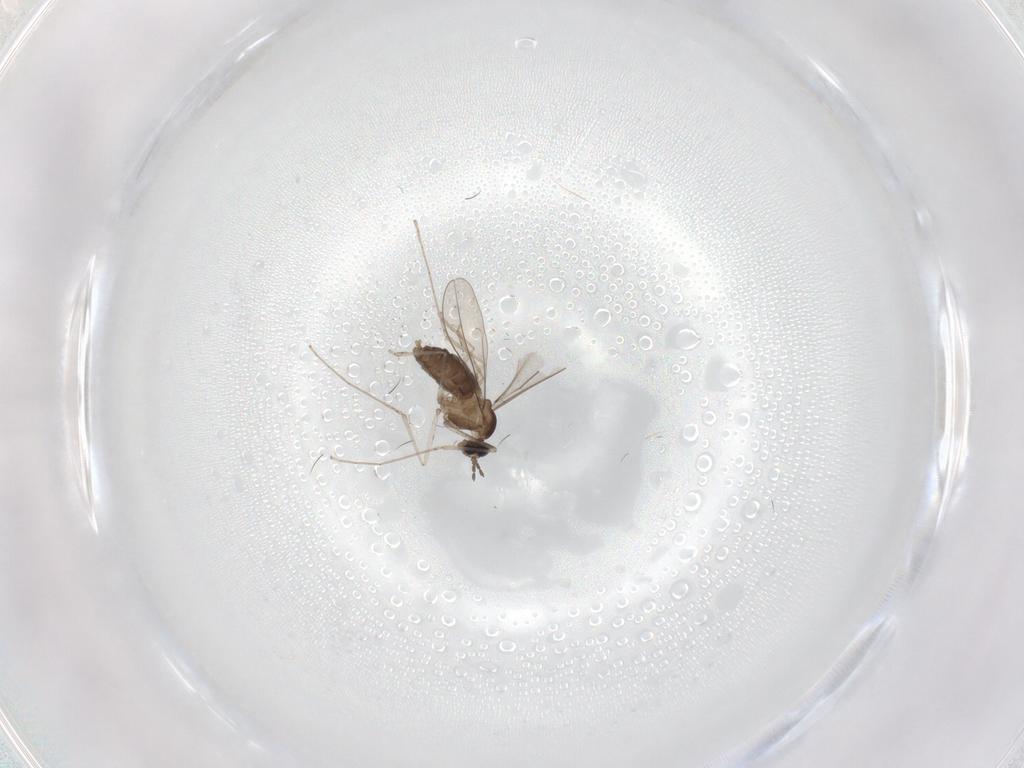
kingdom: Animalia
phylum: Arthropoda
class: Insecta
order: Diptera
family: Cecidomyiidae
